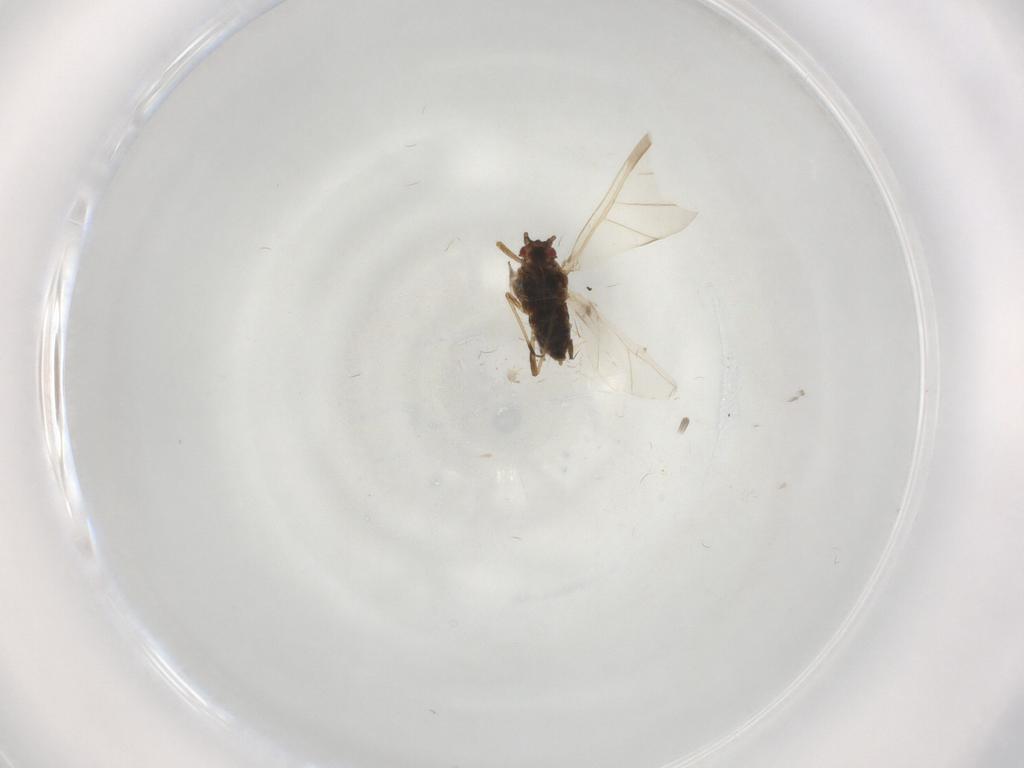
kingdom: Animalia
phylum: Arthropoda
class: Insecta
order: Hemiptera
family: Aphididae
